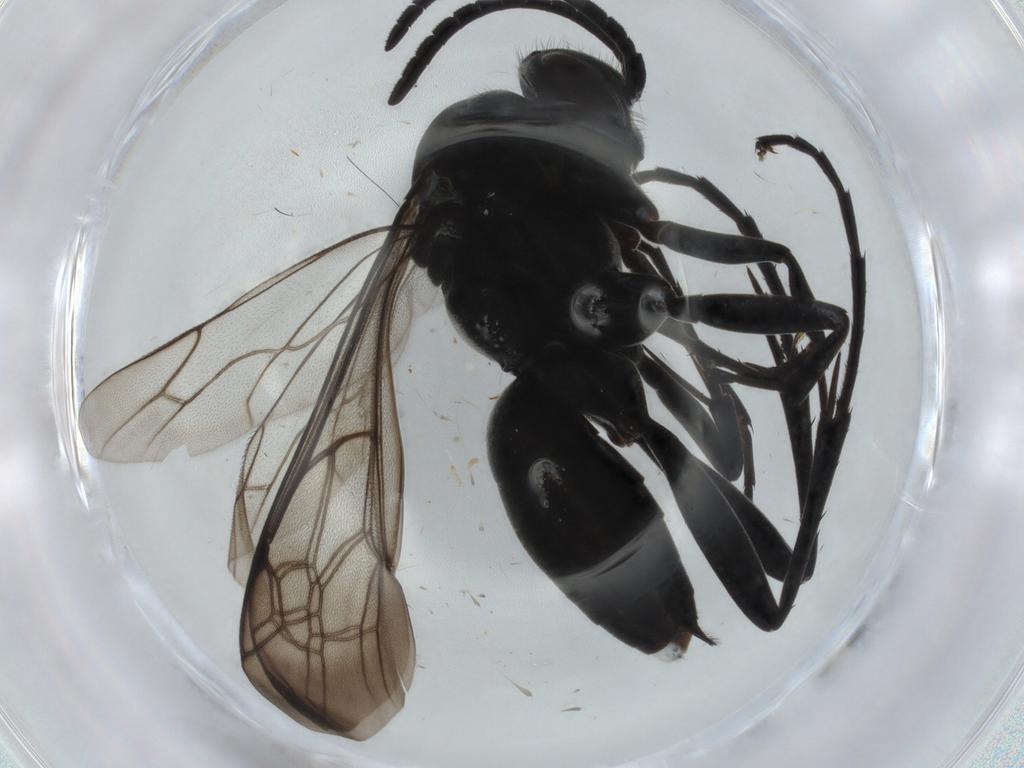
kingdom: Animalia
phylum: Arthropoda
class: Insecta
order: Hymenoptera
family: Pompilidae
